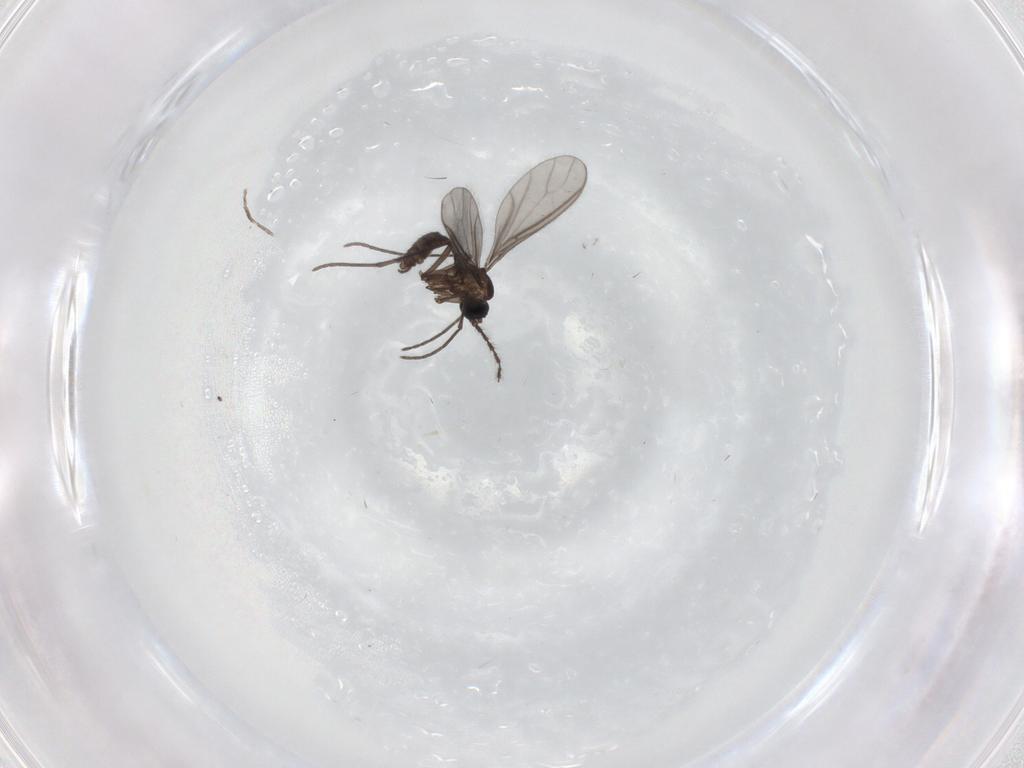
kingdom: Animalia
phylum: Arthropoda
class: Insecta
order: Diptera
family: Sciaridae
